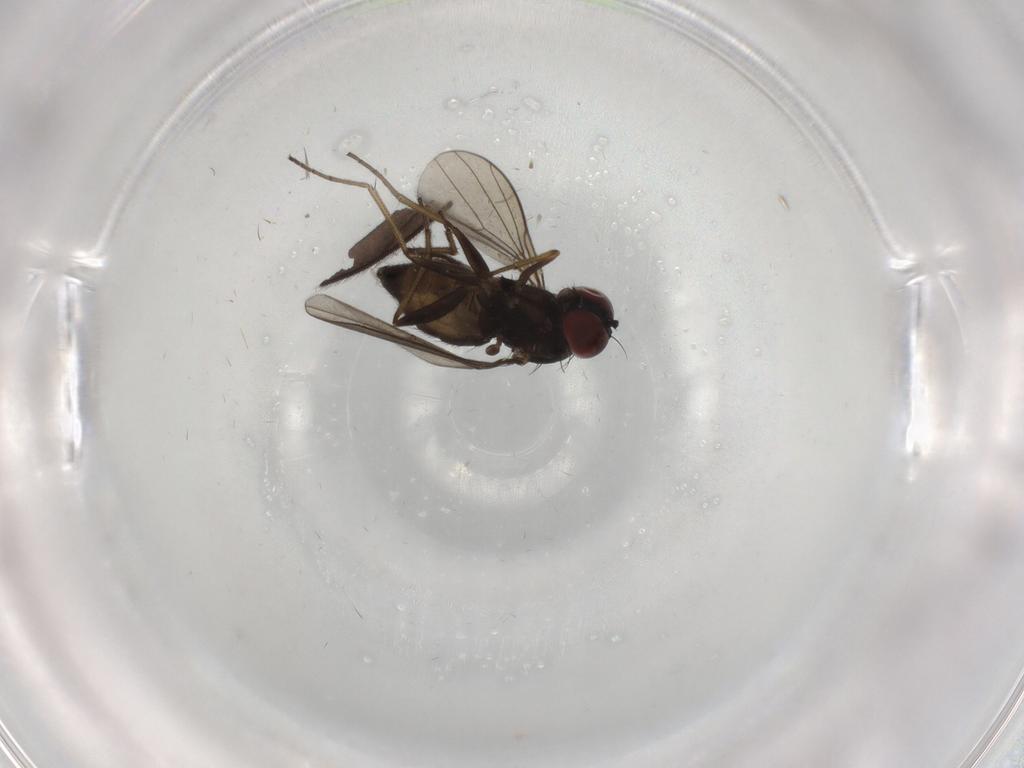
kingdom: Animalia
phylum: Arthropoda
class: Insecta
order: Diptera
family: Dolichopodidae
